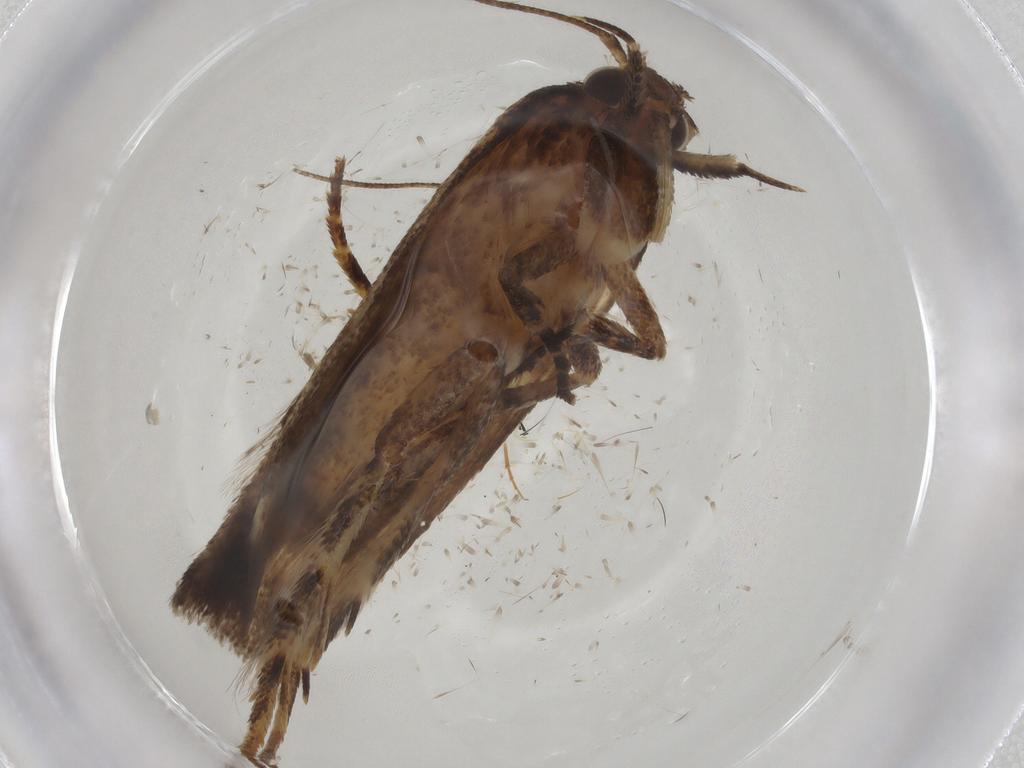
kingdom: Animalia
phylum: Arthropoda
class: Insecta
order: Lepidoptera
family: Gelechiidae
